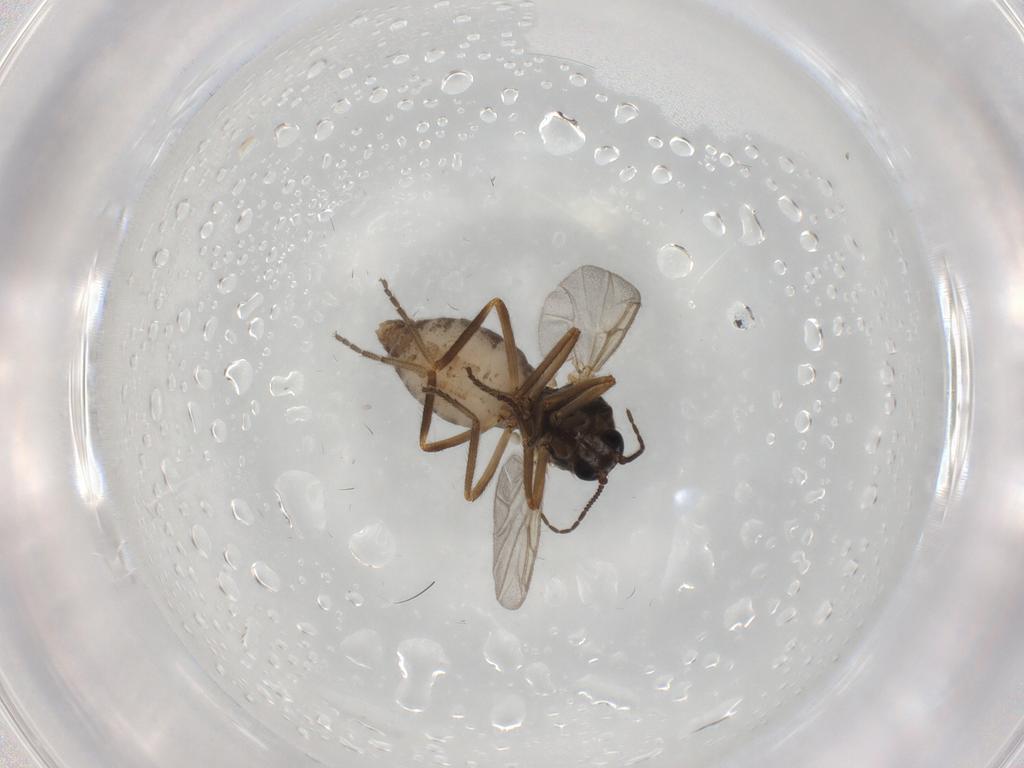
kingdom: Animalia
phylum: Arthropoda
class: Insecta
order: Diptera
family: Ceratopogonidae
